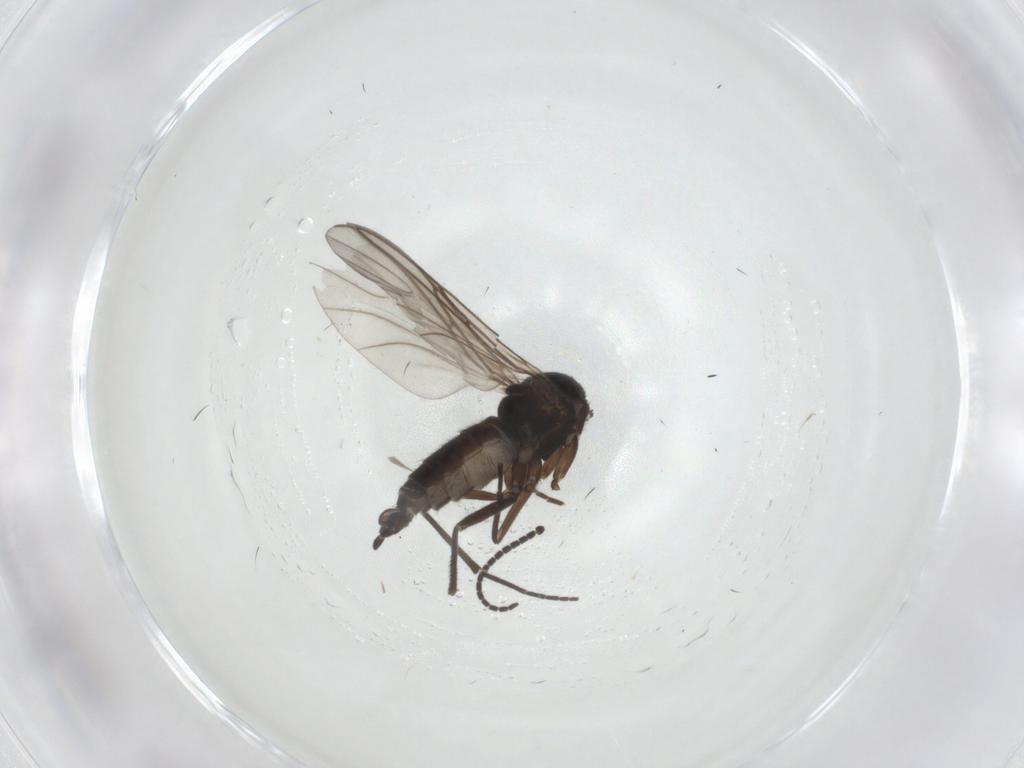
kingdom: Animalia
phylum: Arthropoda
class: Insecta
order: Diptera
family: Sciaridae
